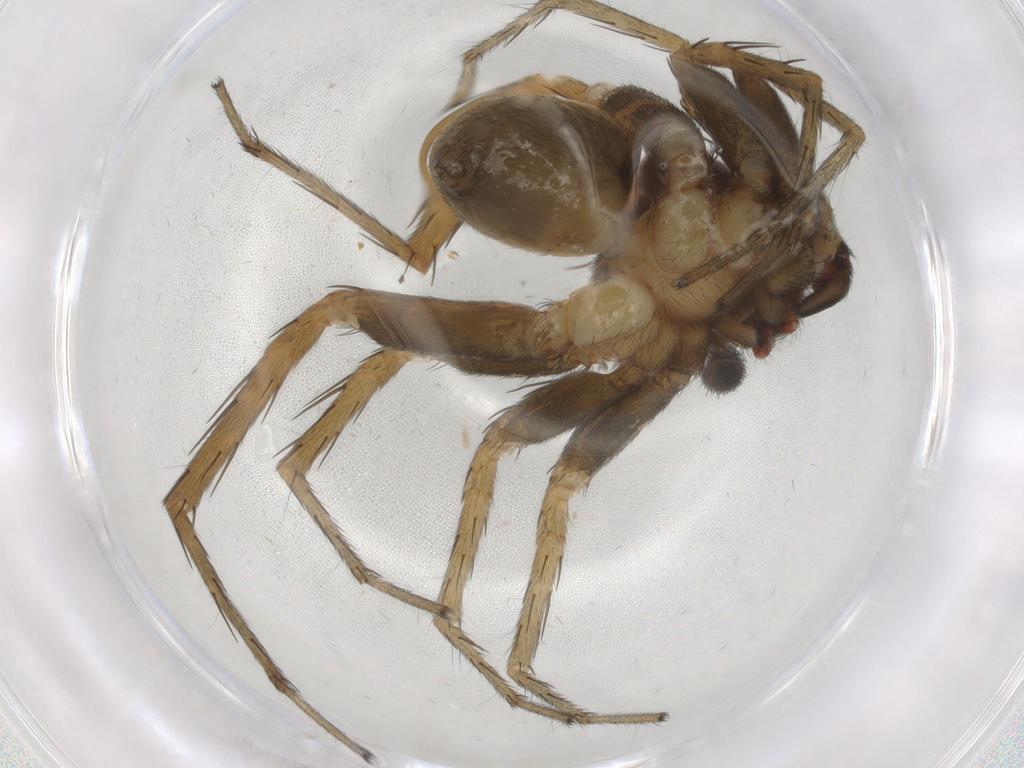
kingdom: Animalia
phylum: Arthropoda
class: Arachnida
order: Araneae
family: Lycosidae
